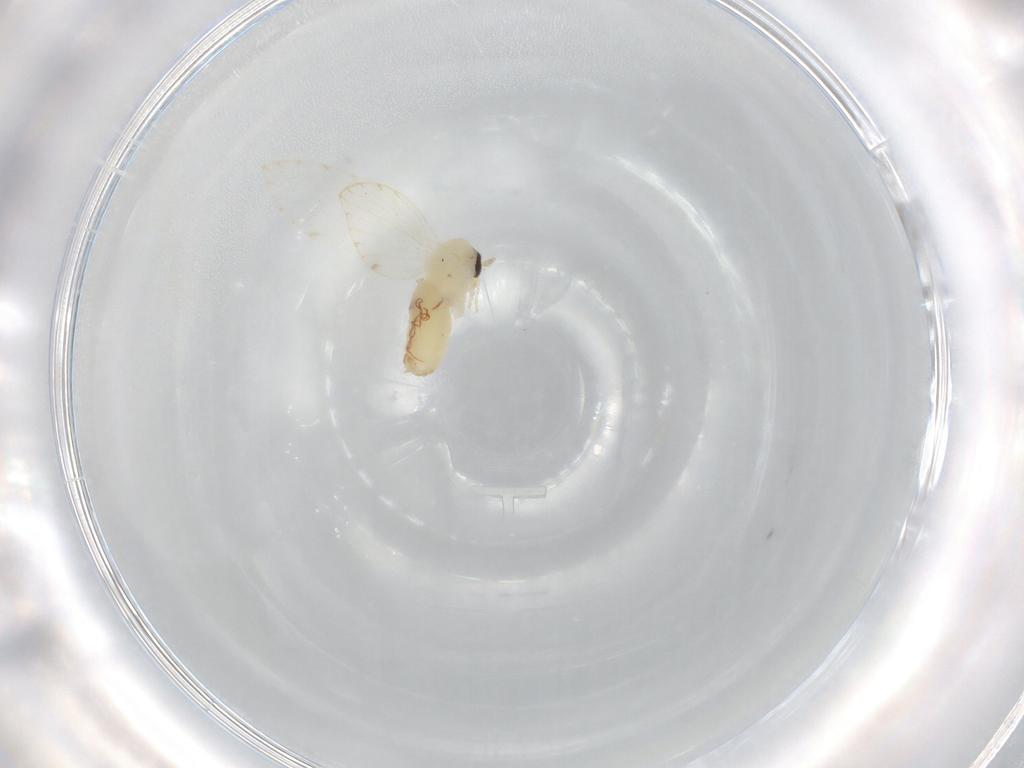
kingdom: Animalia
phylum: Arthropoda
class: Insecta
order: Diptera
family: Psychodidae
